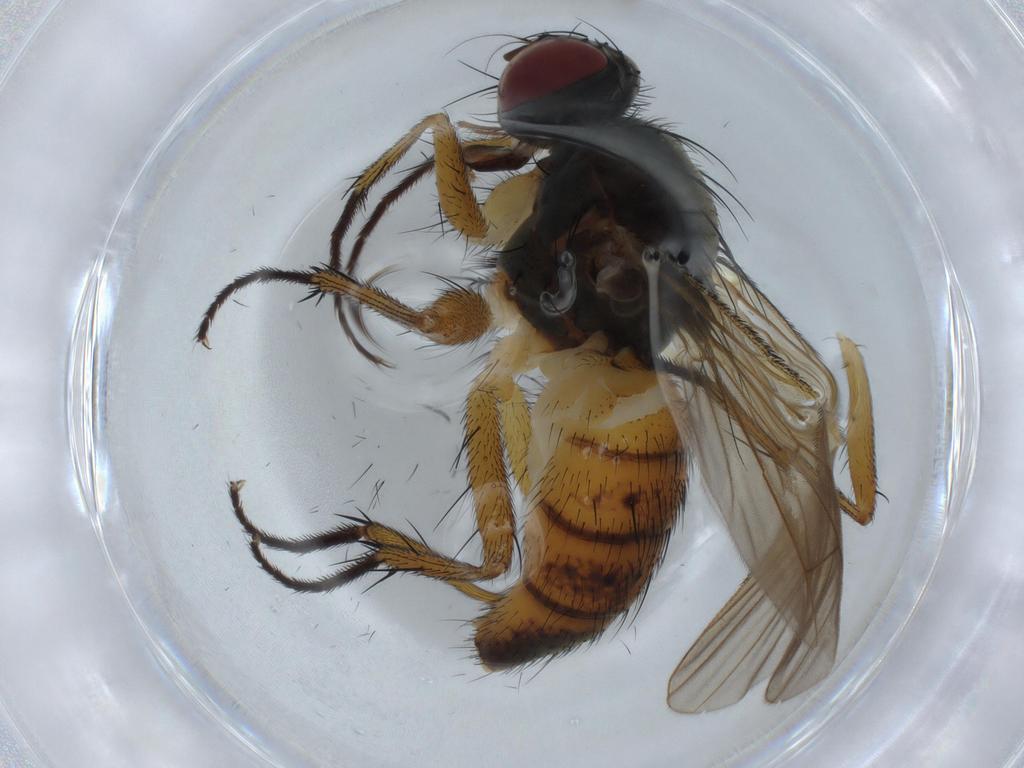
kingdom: Animalia
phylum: Arthropoda
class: Insecta
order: Diptera
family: Muscidae
